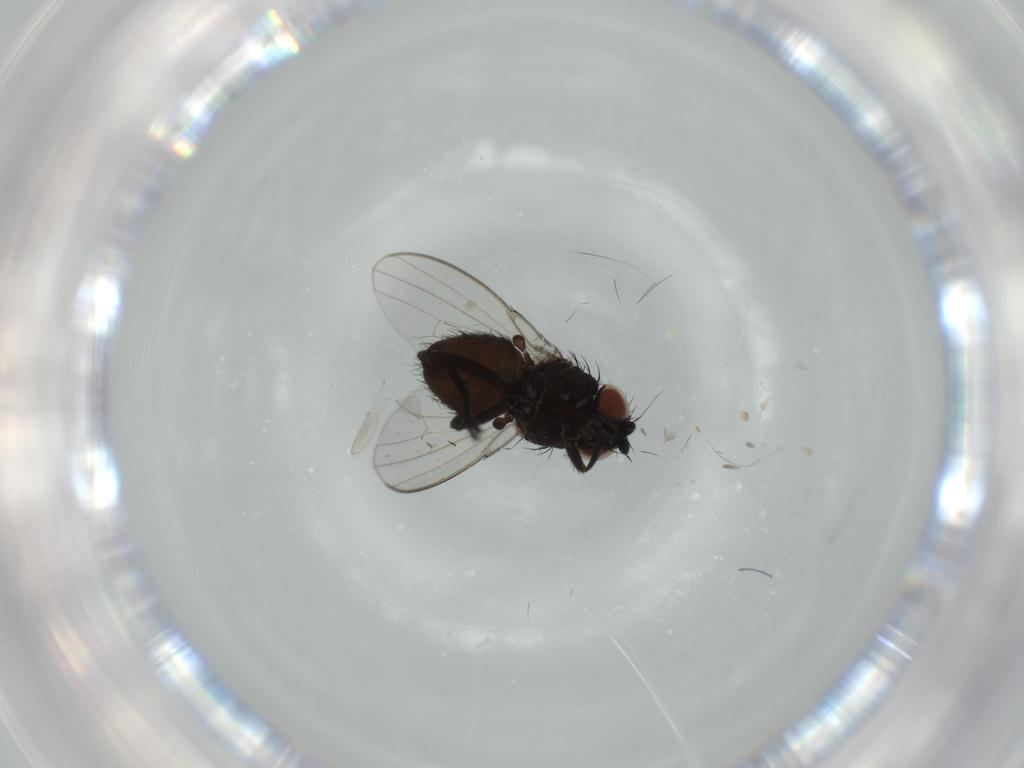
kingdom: Animalia
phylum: Arthropoda
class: Insecta
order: Diptera
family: Milichiidae
